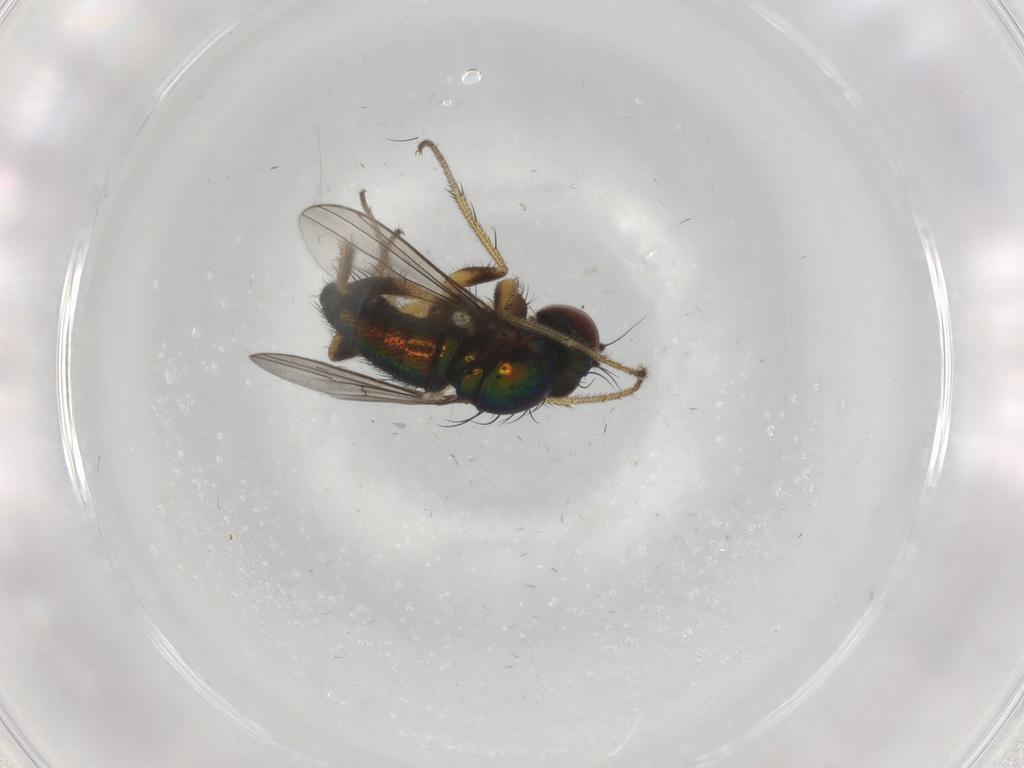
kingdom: Animalia
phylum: Arthropoda
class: Insecta
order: Diptera
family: Dolichopodidae
